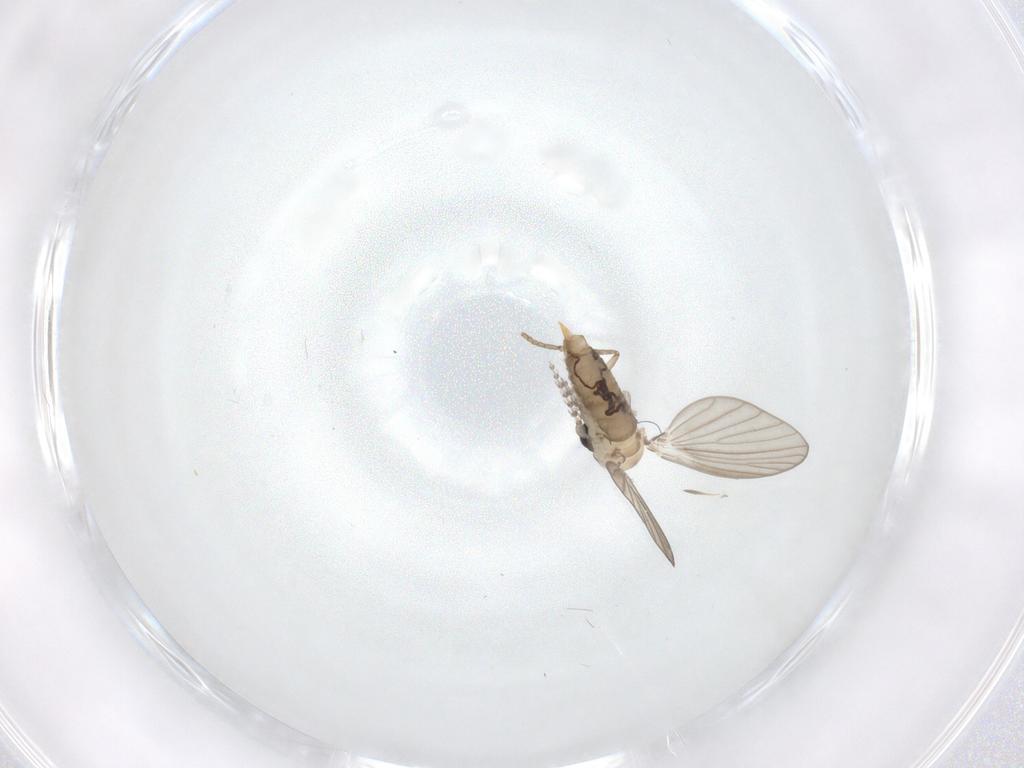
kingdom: Animalia
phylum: Arthropoda
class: Insecta
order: Diptera
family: Psychodidae
